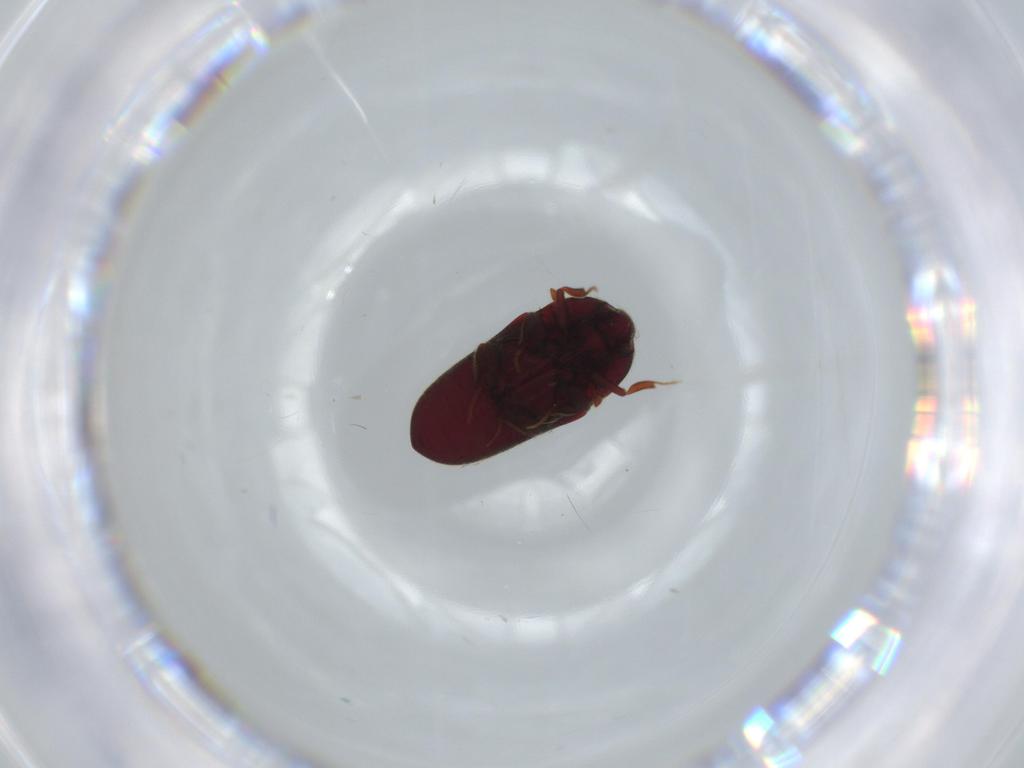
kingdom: Animalia
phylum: Arthropoda
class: Insecta
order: Coleoptera
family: Throscidae
